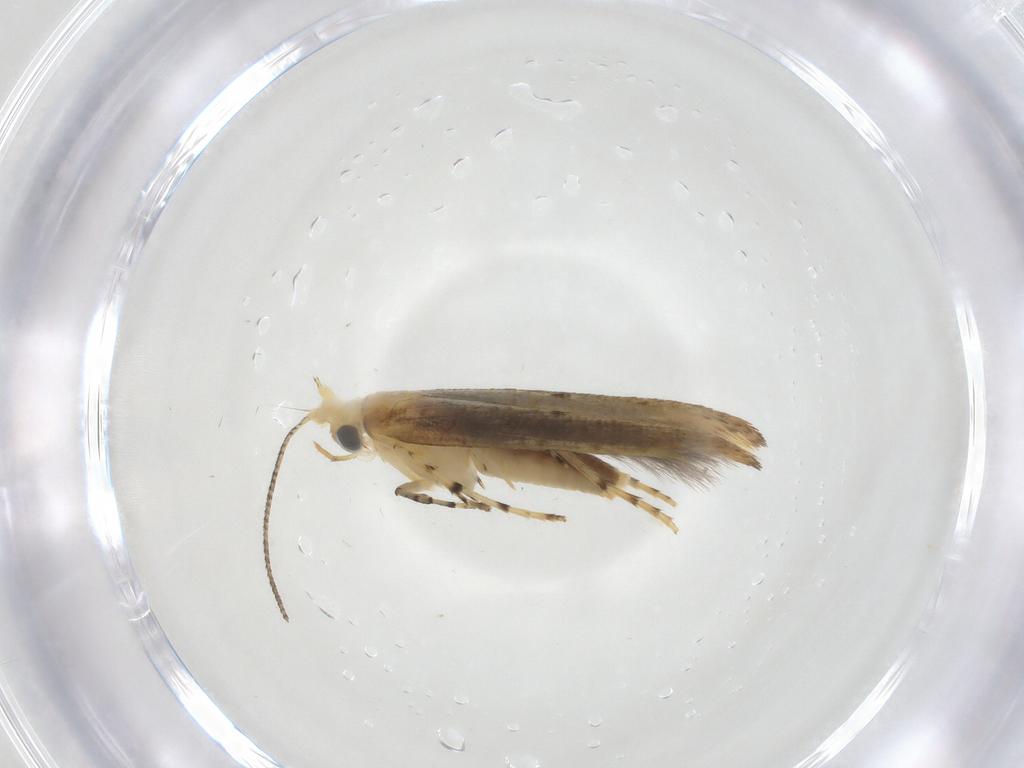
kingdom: Animalia
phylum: Arthropoda
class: Insecta
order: Lepidoptera
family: Argyresthiidae
